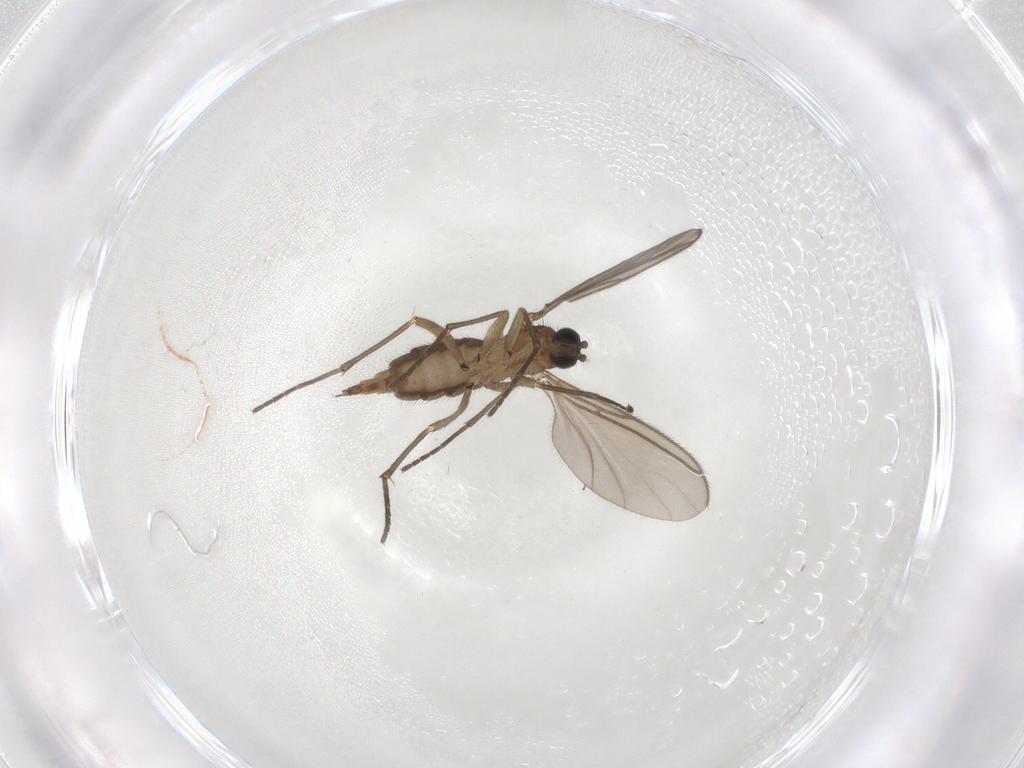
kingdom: Animalia
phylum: Arthropoda
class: Insecta
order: Diptera
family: Sciaridae
